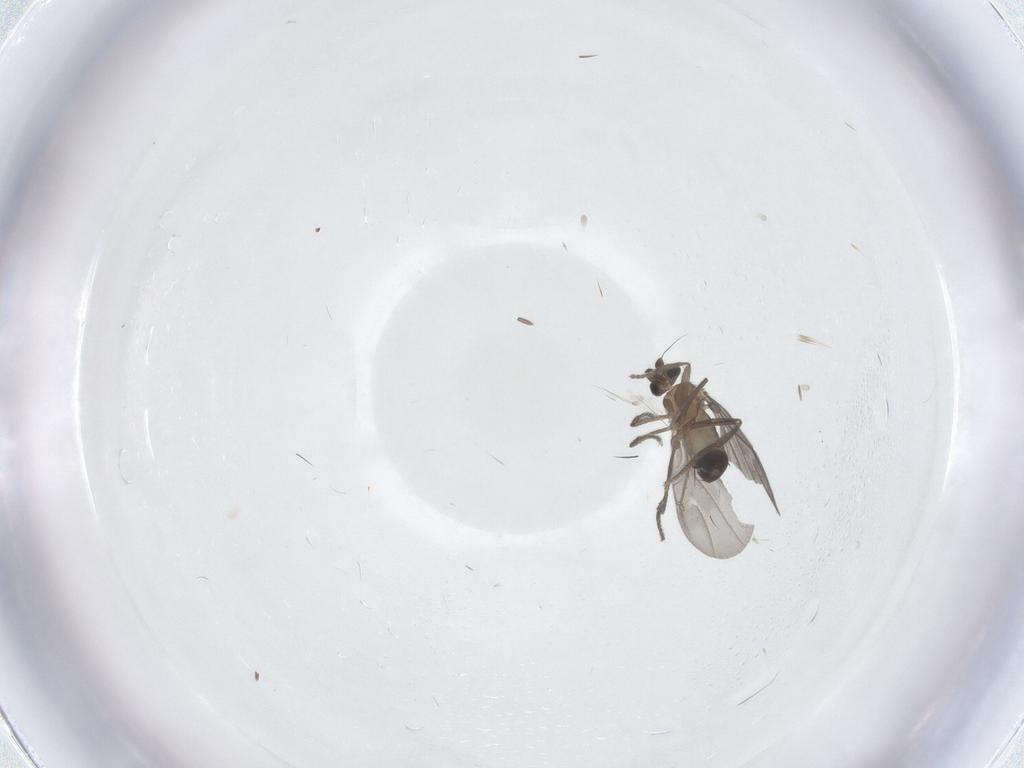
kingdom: Animalia
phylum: Arthropoda
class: Insecta
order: Diptera
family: Phoridae
